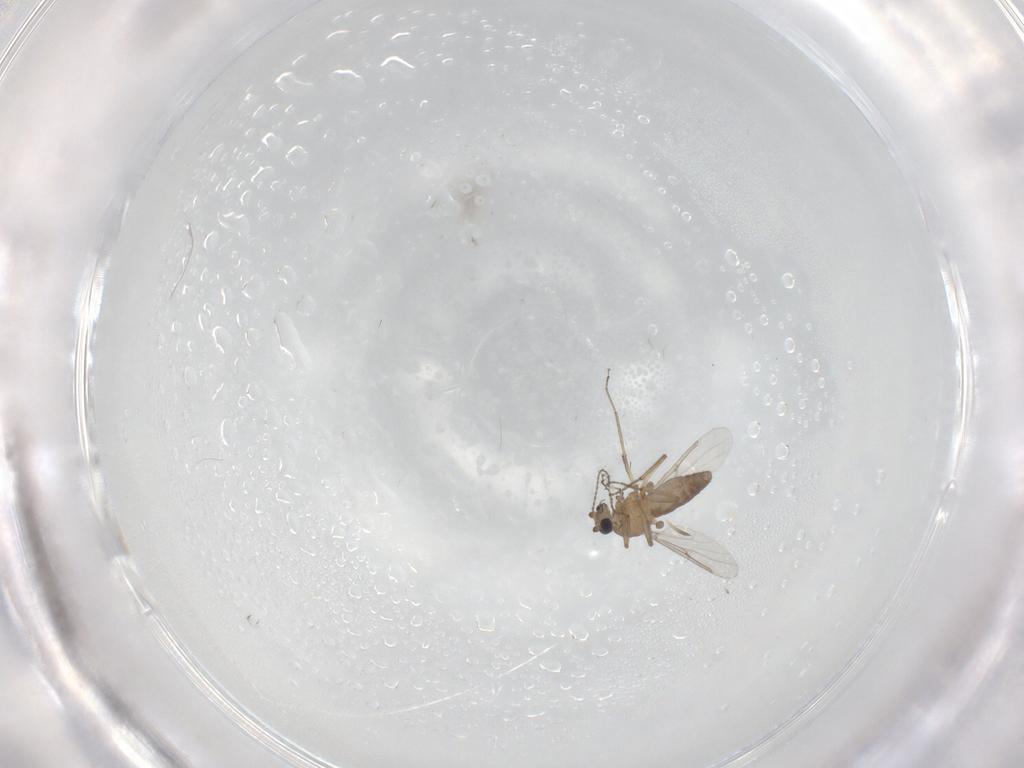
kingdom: Animalia
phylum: Arthropoda
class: Insecta
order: Diptera
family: Ceratopogonidae
